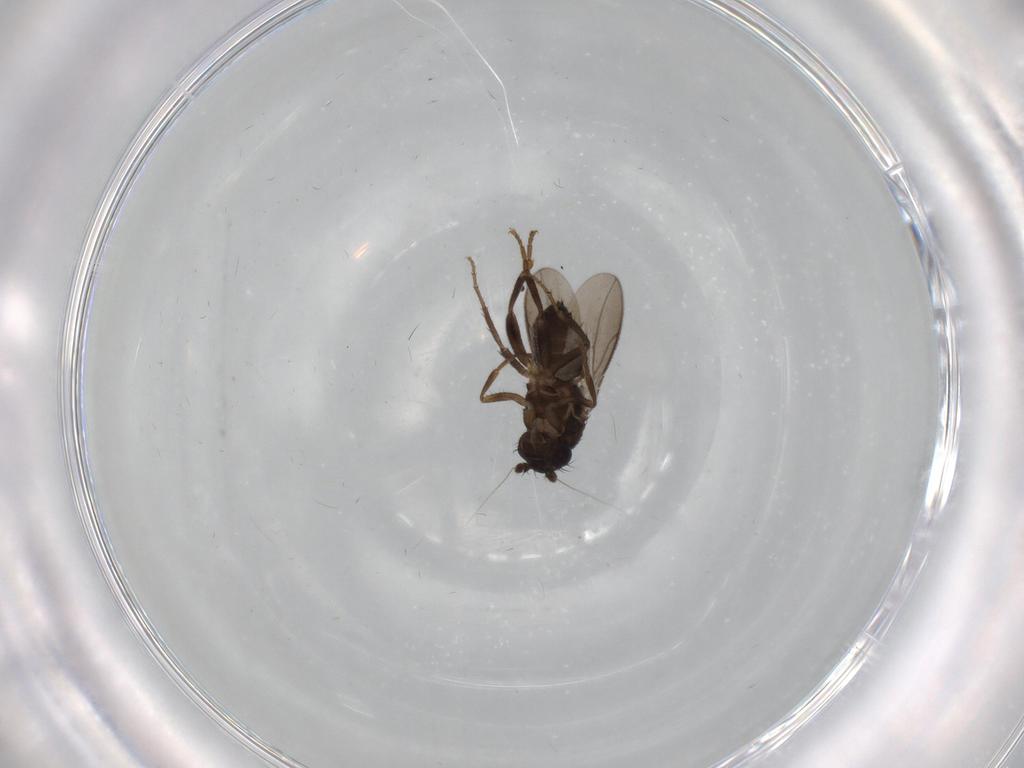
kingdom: Animalia
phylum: Arthropoda
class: Insecta
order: Diptera
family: Sphaeroceridae
